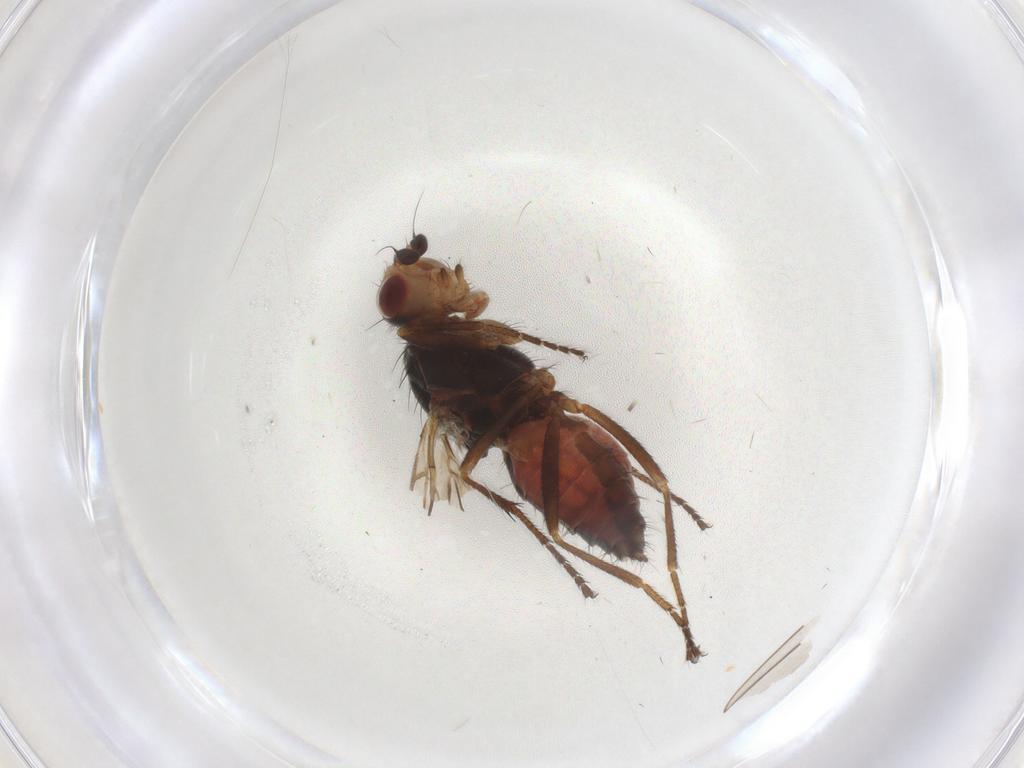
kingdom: Animalia
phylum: Arthropoda
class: Insecta
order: Diptera
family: Heleomyzidae
